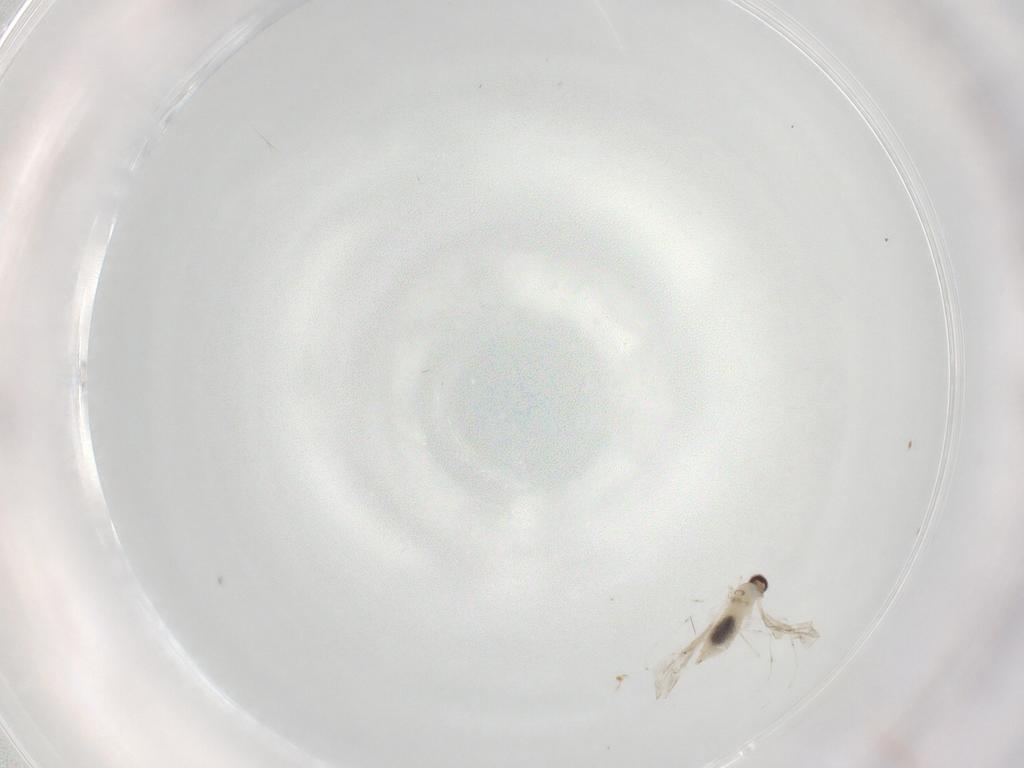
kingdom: Animalia
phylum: Arthropoda
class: Insecta
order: Diptera
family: Cecidomyiidae
